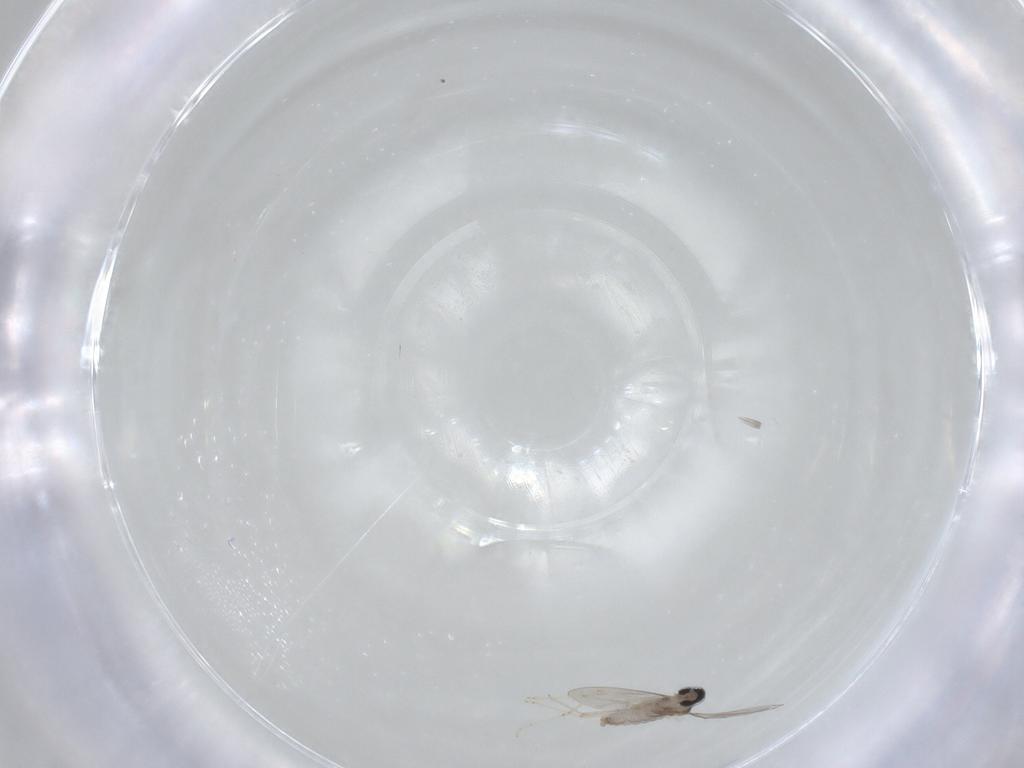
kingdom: Animalia
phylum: Arthropoda
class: Insecta
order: Diptera
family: Cecidomyiidae
